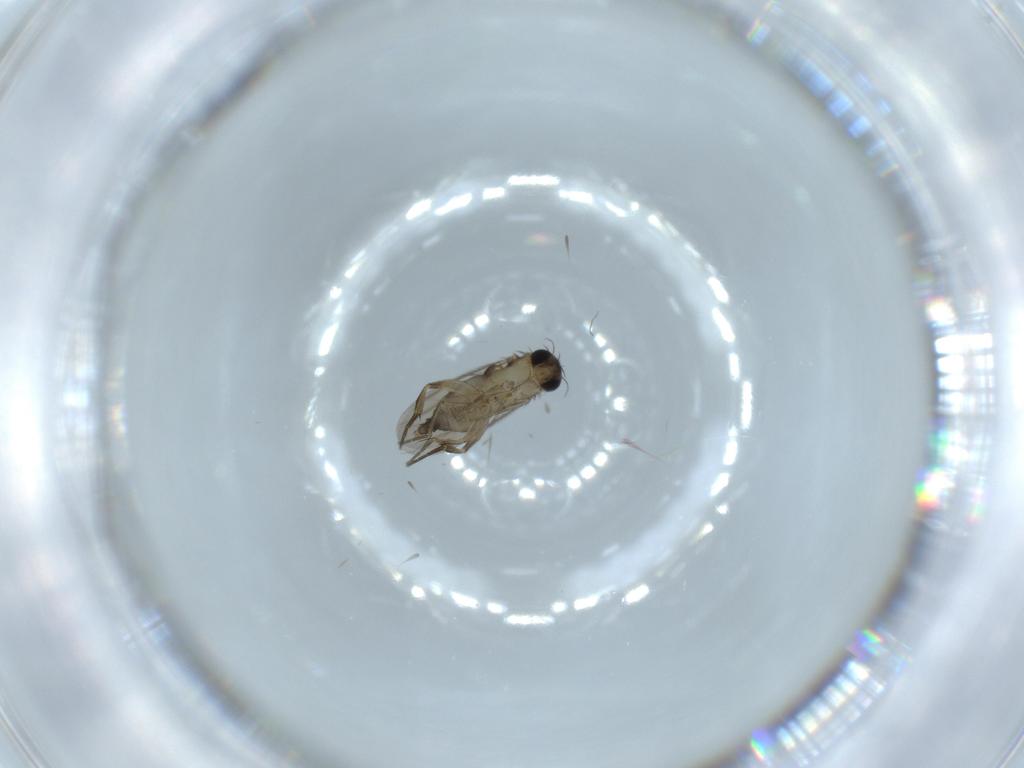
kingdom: Animalia
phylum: Arthropoda
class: Insecta
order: Diptera
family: Phoridae
